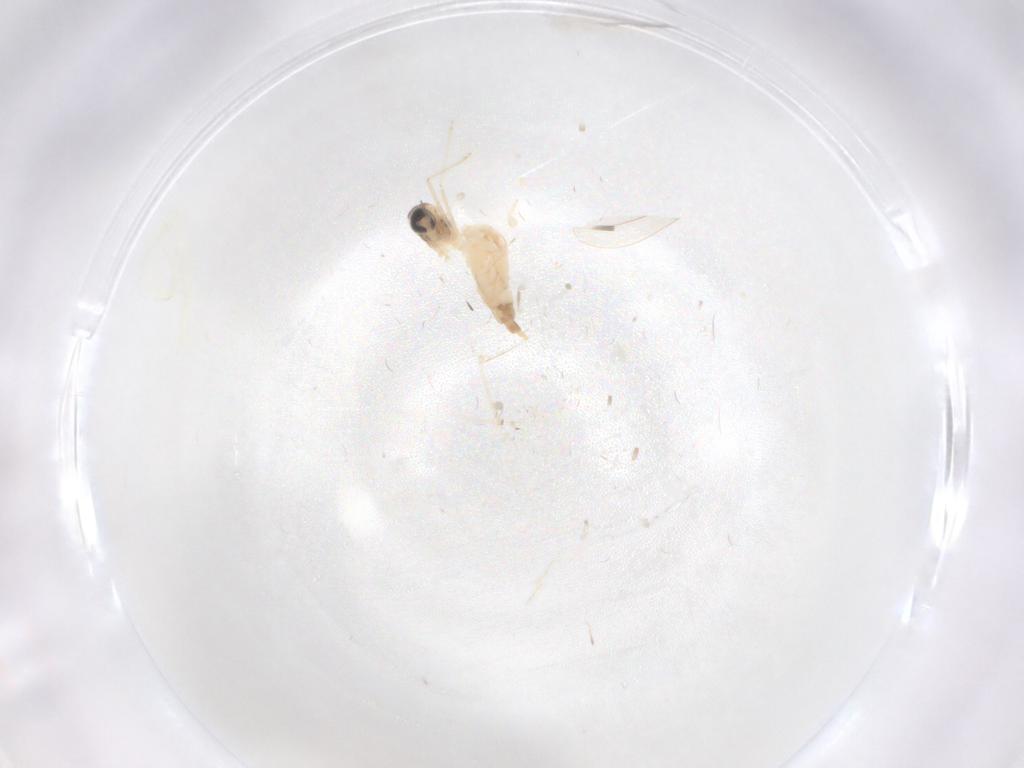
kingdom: Animalia
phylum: Arthropoda
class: Insecta
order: Diptera
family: Cecidomyiidae
